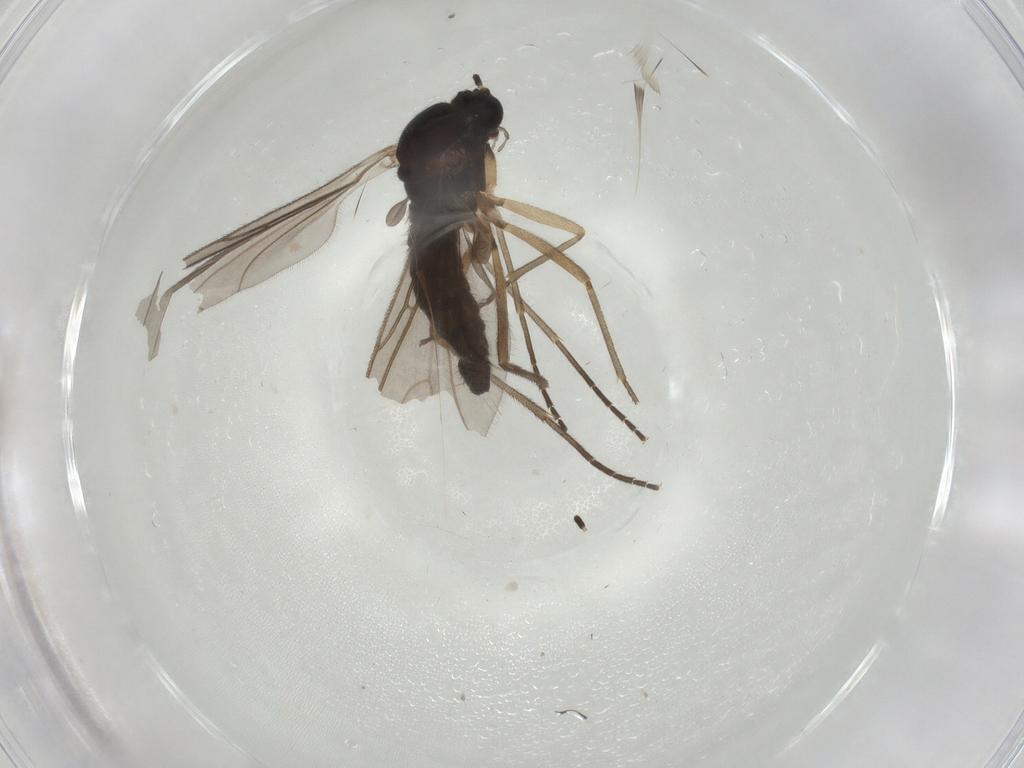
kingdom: Animalia
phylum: Arthropoda
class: Insecta
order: Diptera
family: Sciaridae
